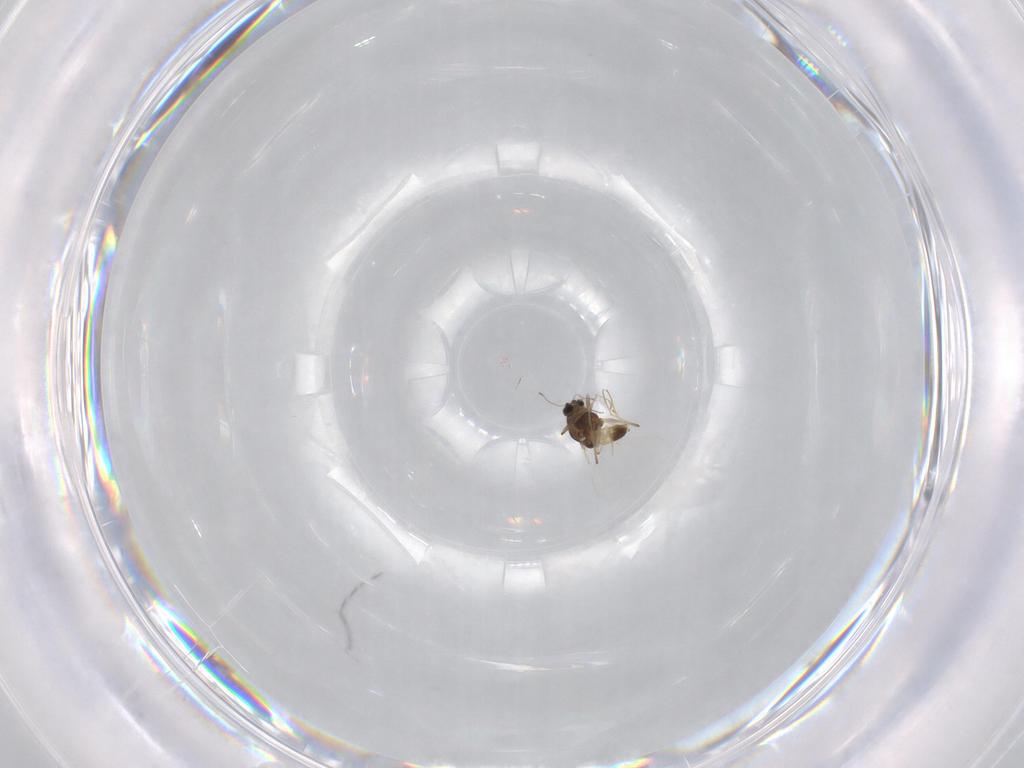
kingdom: Animalia
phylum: Arthropoda
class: Insecta
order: Diptera
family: Chironomidae
